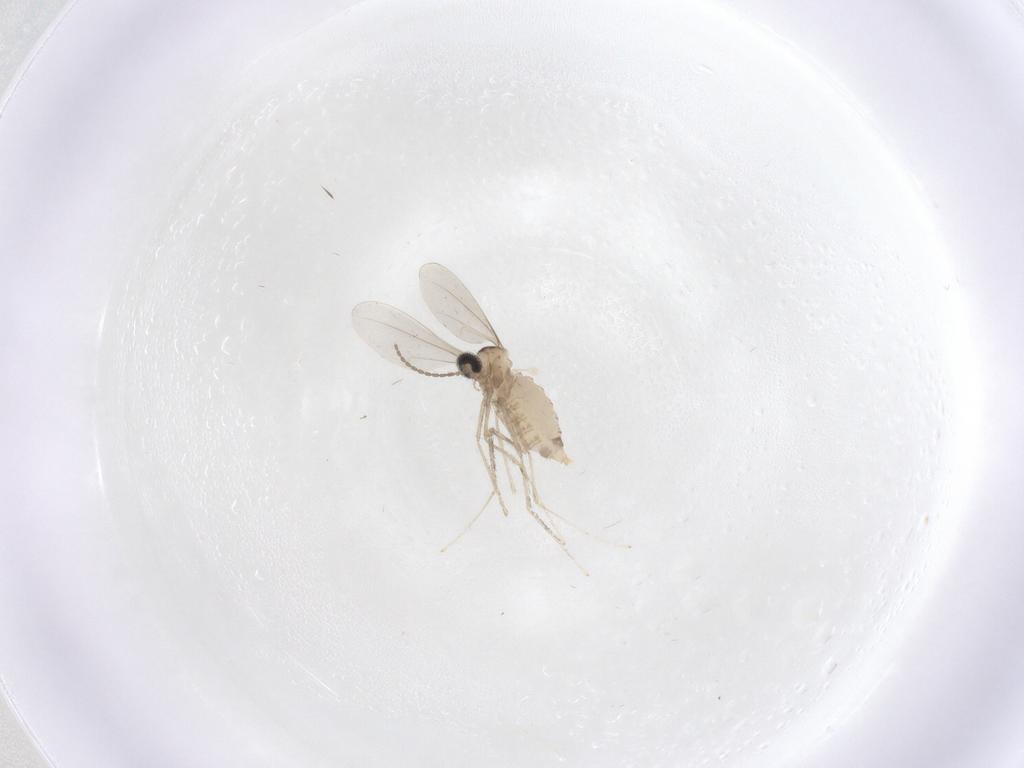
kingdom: Animalia
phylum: Arthropoda
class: Insecta
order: Diptera
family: Cecidomyiidae
